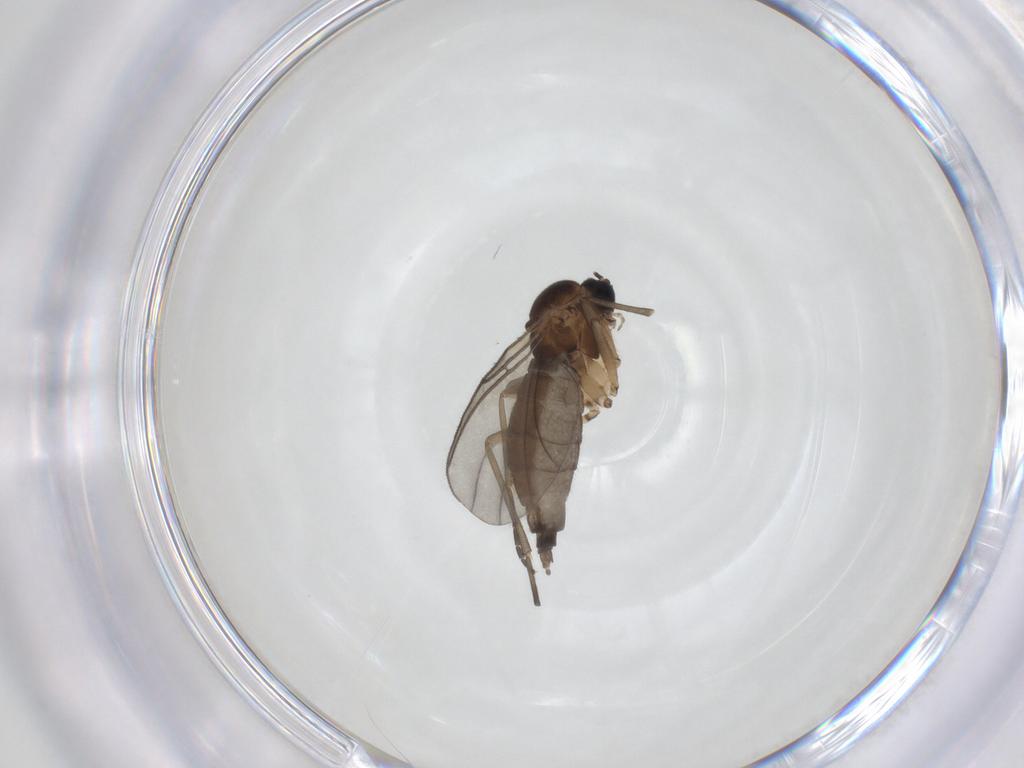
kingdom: Animalia
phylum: Arthropoda
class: Insecta
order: Diptera
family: Sciaridae
